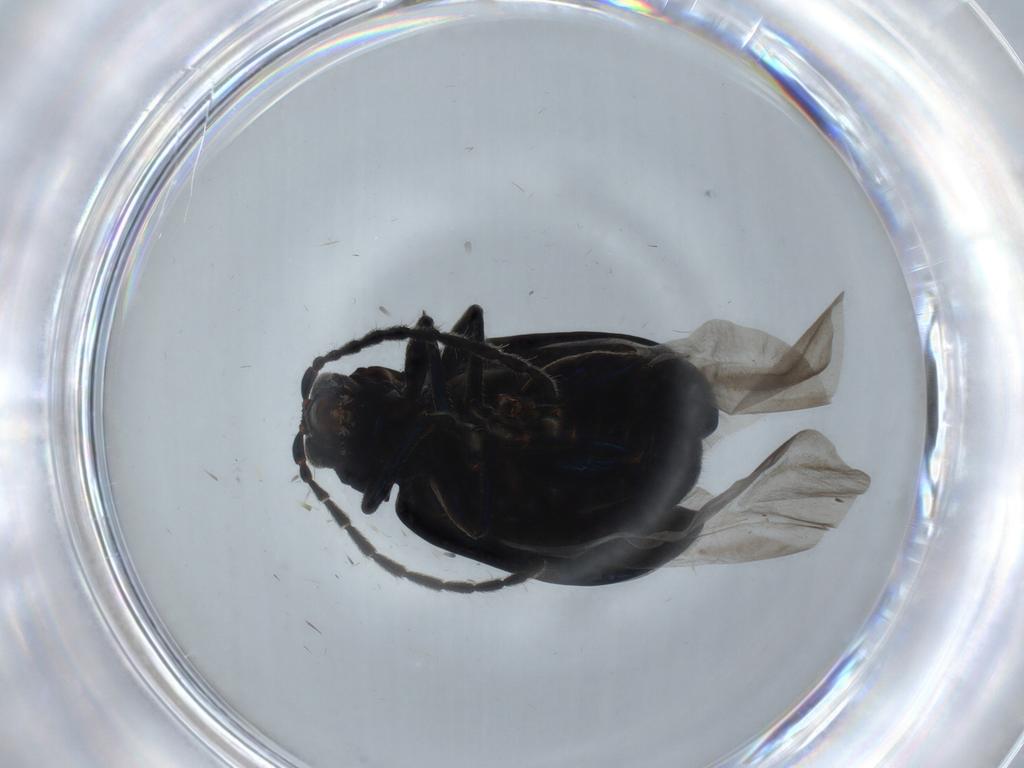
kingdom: Animalia
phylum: Arthropoda
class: Insecta
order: Coleoptera
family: Chrysomelidae
